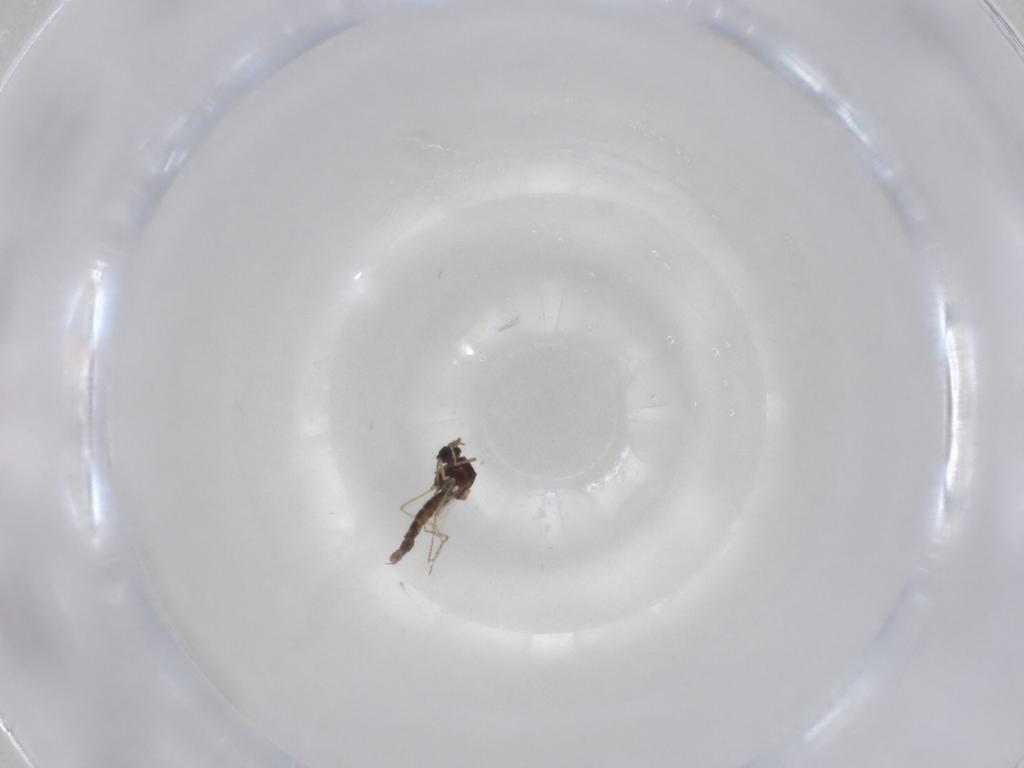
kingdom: Animalia
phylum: Arthropoda
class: Insecta
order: Diptera
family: Ceratopogonidae
